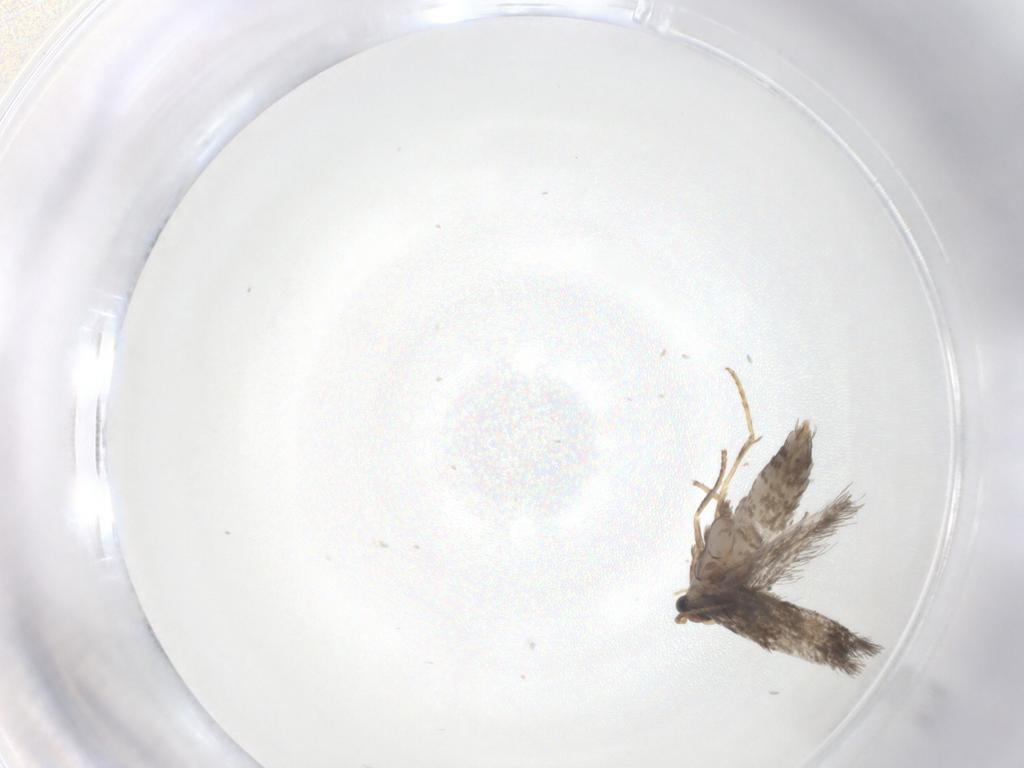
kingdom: Animalia
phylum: Arthropoda
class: Insecta
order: Lepidoptera
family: Nepticulidae
